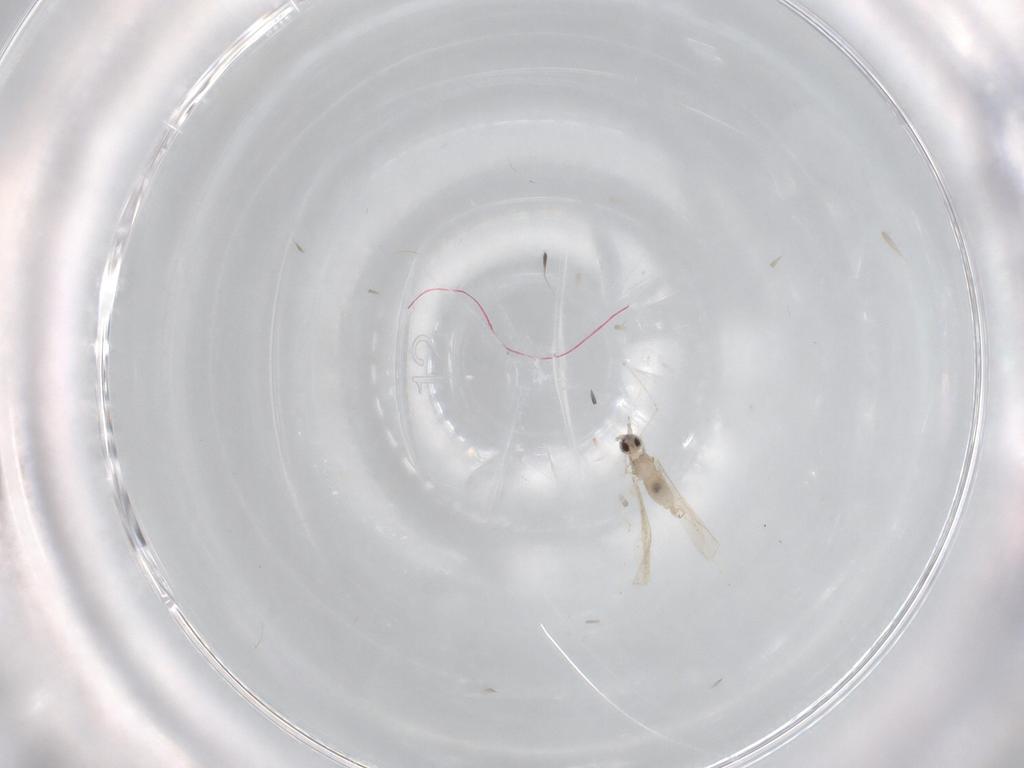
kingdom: Animalia
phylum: Arthropoda
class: Insecta
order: Diptera
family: Cecidomyiidae
